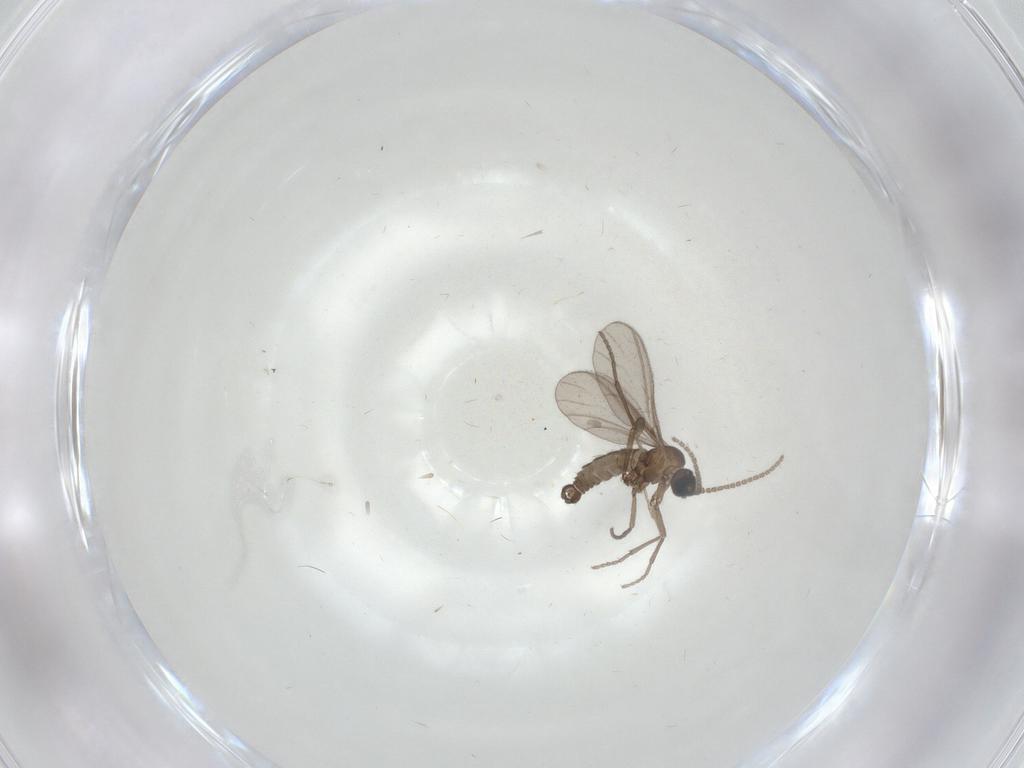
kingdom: Animalia
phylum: Arthropoda
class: Insecta
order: Diptera
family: Sciaridae
